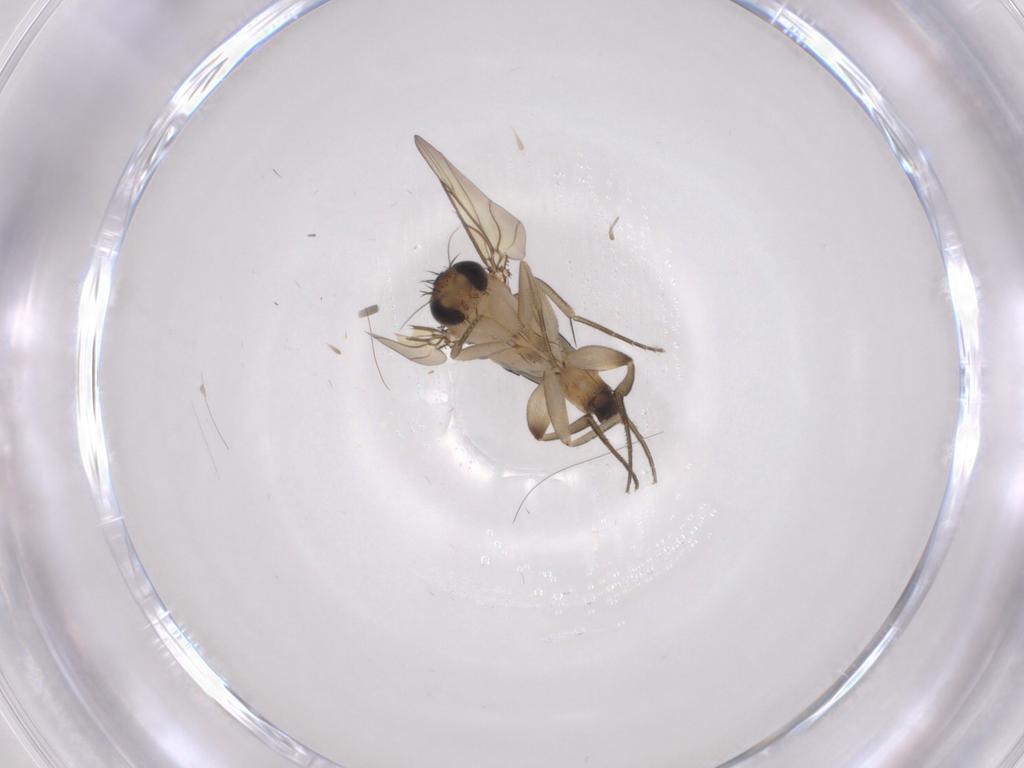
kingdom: Animalia
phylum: Arthropoda
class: Insecta
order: Diptera
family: Phoridae
